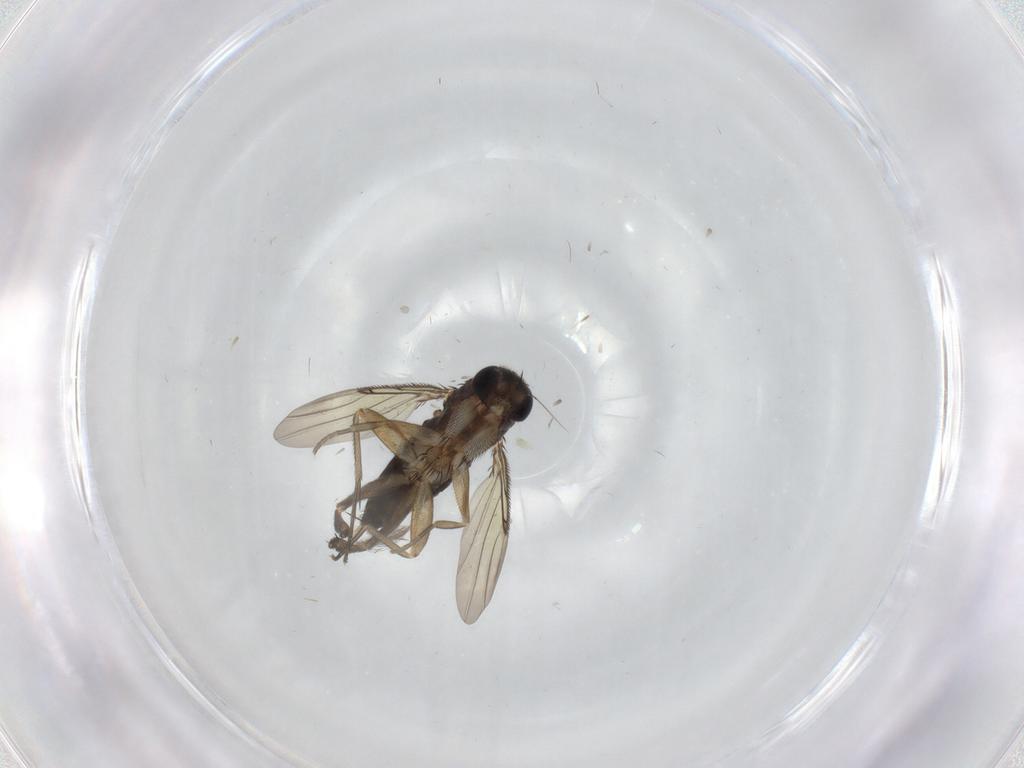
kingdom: Animalia
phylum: Arthropoda
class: Insecta
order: Diptera
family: Phoridae
